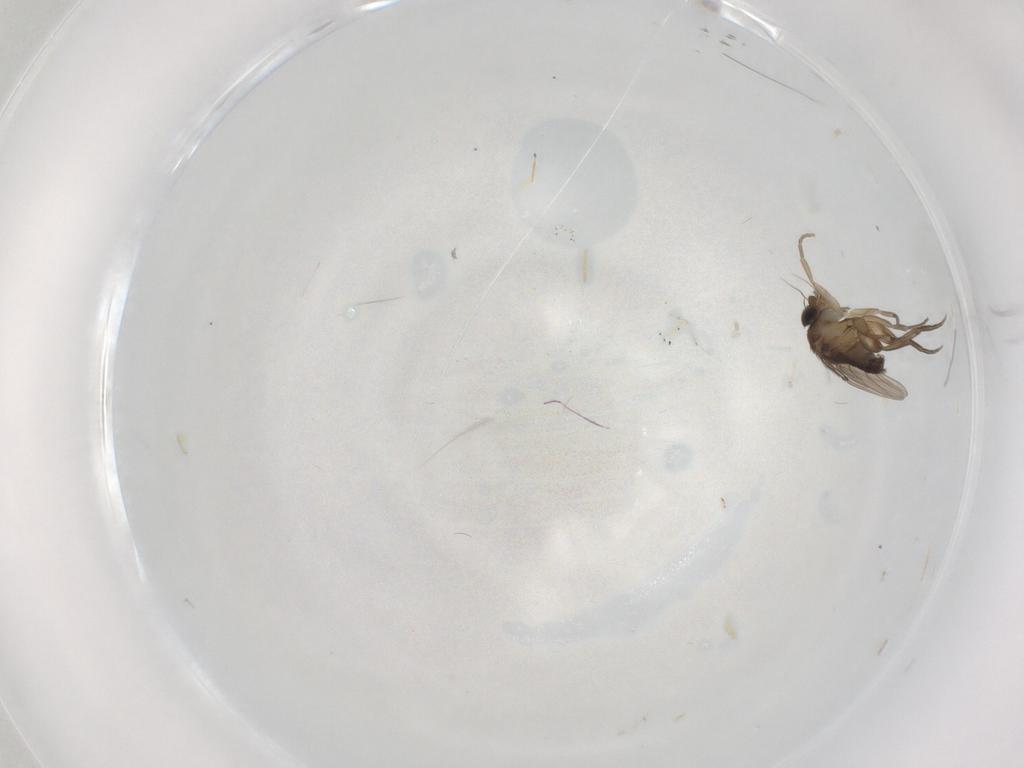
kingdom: Animalia
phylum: Arthropoda
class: Insecta
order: Diptera
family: Phoridae
